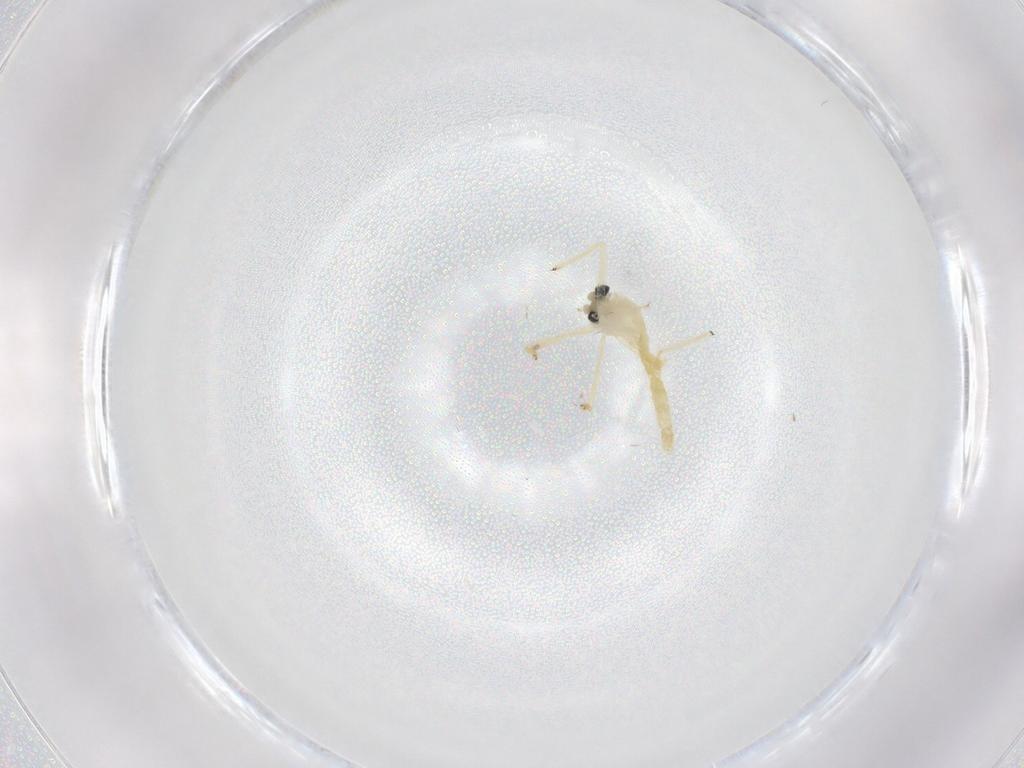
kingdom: Animalia
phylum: Arthropoda
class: Insecta
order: Diptera
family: Chironomidae
